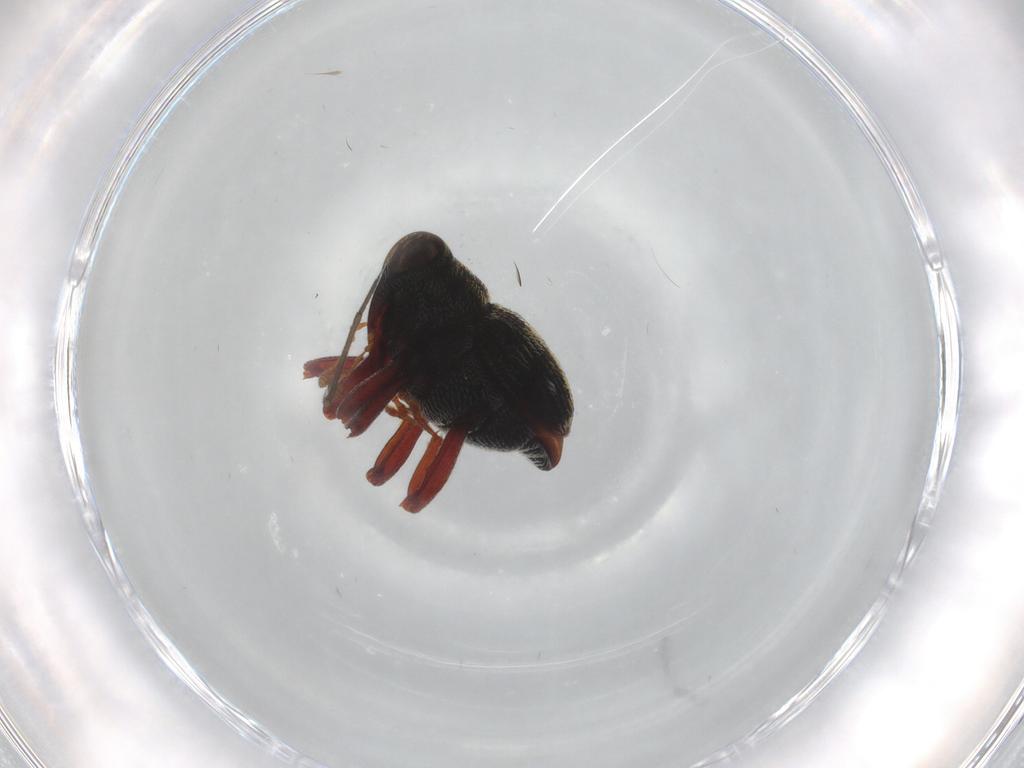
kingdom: Animalia
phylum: Arthropoda
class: Insecta
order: Coleoptera
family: Curculionidae
